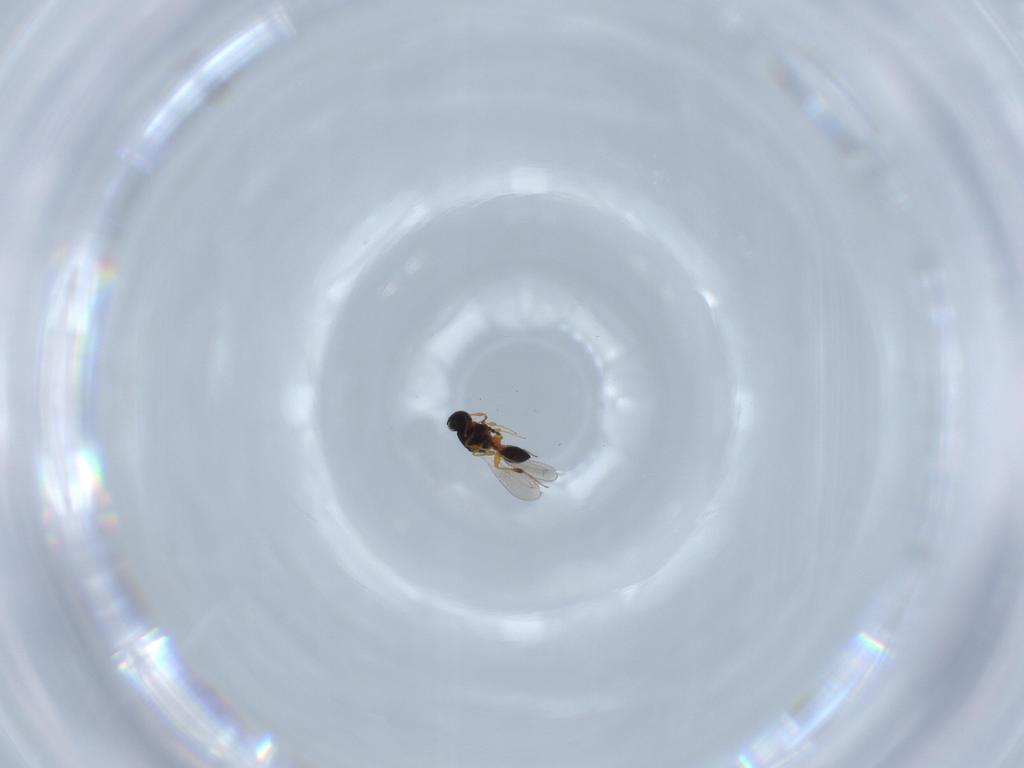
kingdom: Animalia
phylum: Arthropoda
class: Insecta
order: Hymenoptera
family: Platygastridae
